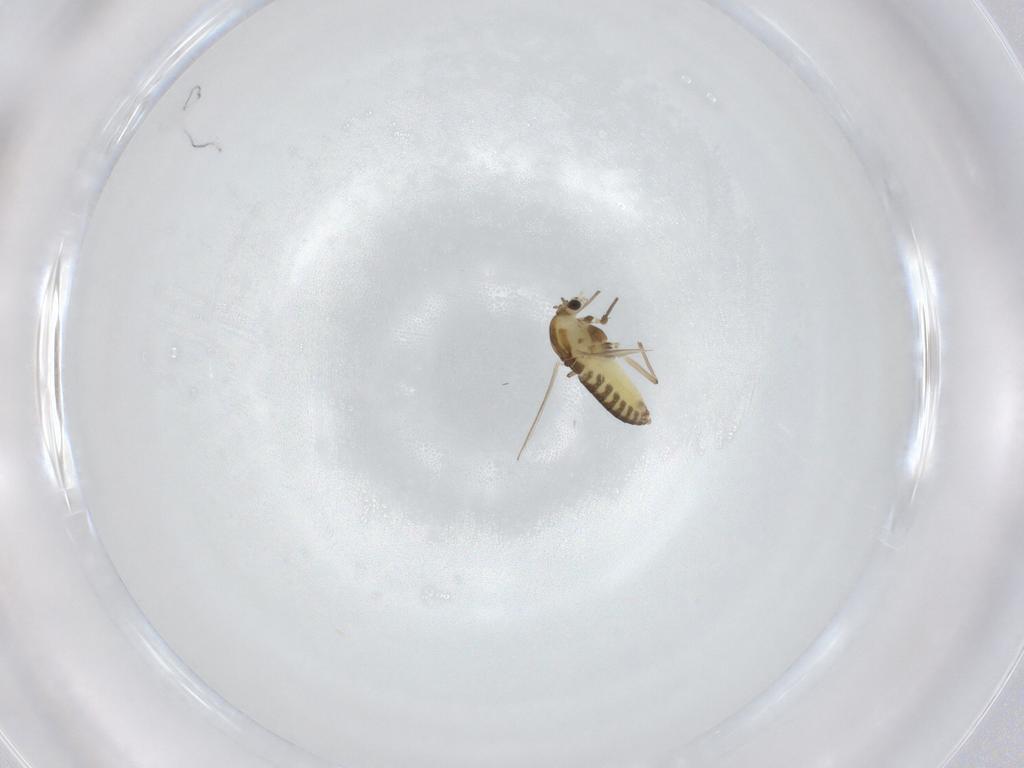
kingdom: Animalia
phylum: Arthropoda
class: Insecta
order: Diptera
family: Chironomidae
